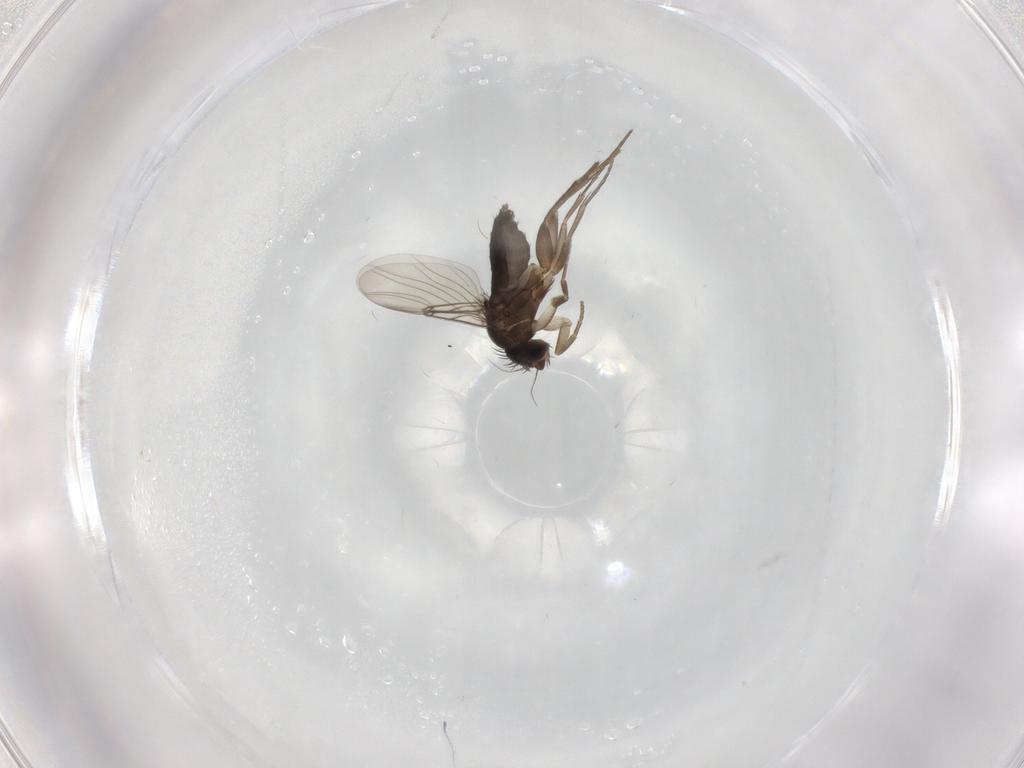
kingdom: Animalia
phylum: Arthropoda
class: Insecta
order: Diptera
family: Phoridae
